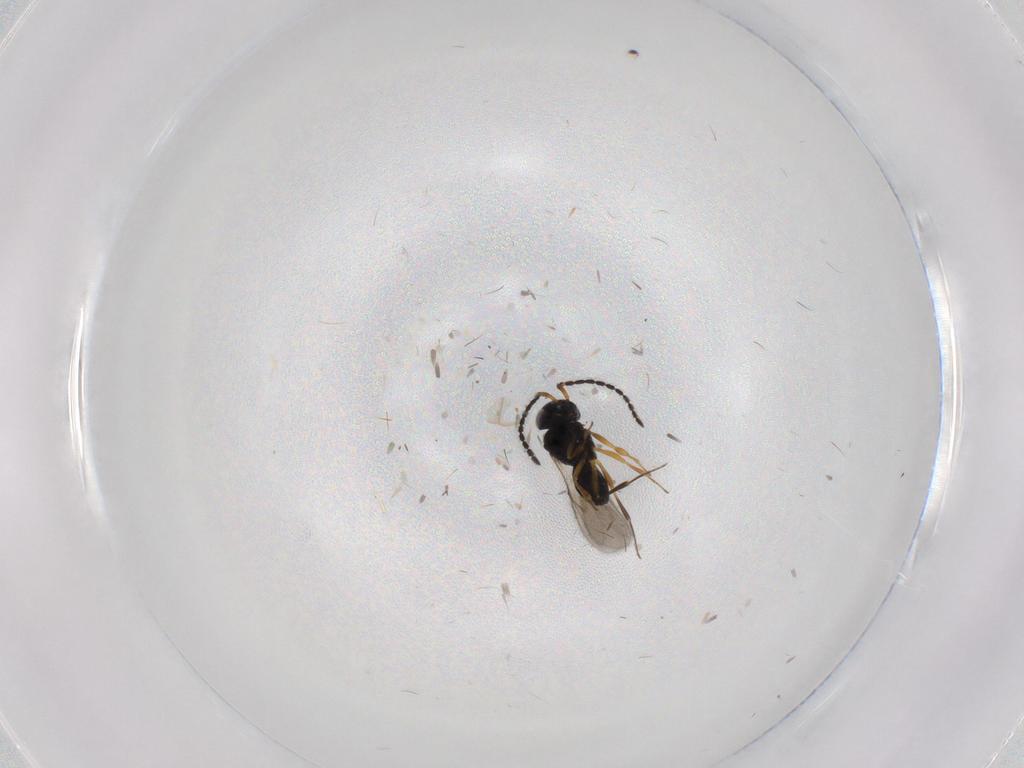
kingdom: Animalia
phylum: Arthropoda
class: Insecta
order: Hymenoptera
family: Scelionidae
